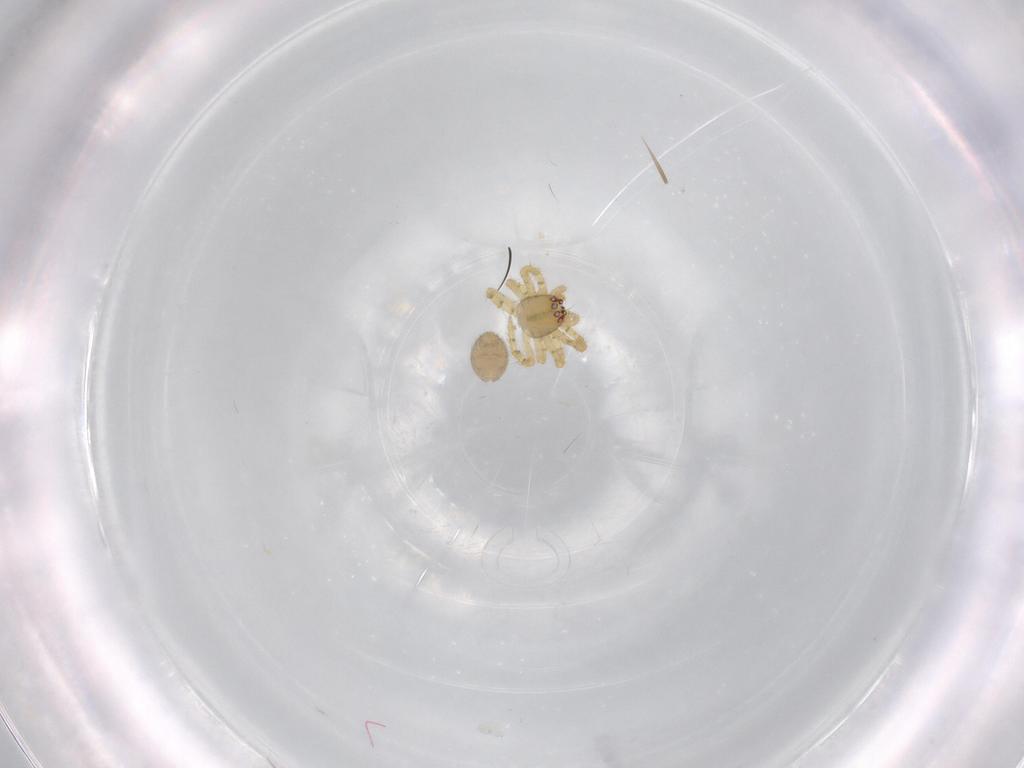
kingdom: Animalia
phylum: Arthropoda
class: Arachnida
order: Araneae
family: Theridiidae
